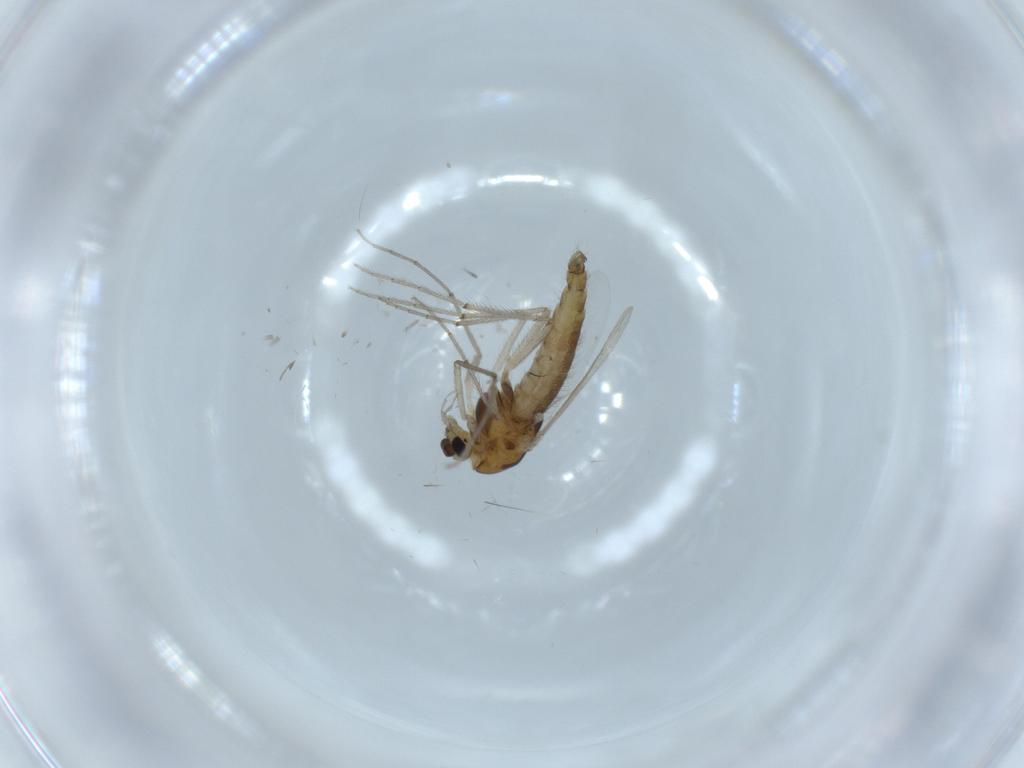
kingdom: Animalia
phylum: Arthropoda
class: Insecta
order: Diptera
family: Chironomidae
